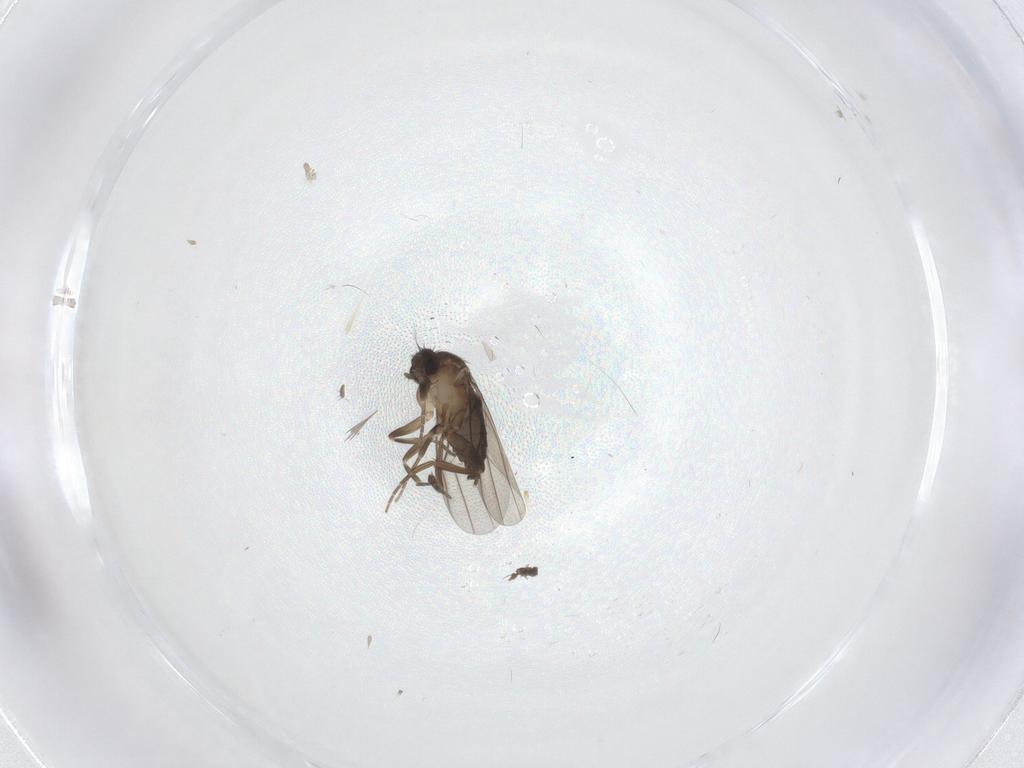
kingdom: Animalia
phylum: Arthropoda
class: Insecta
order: Diptera
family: Phoridae
